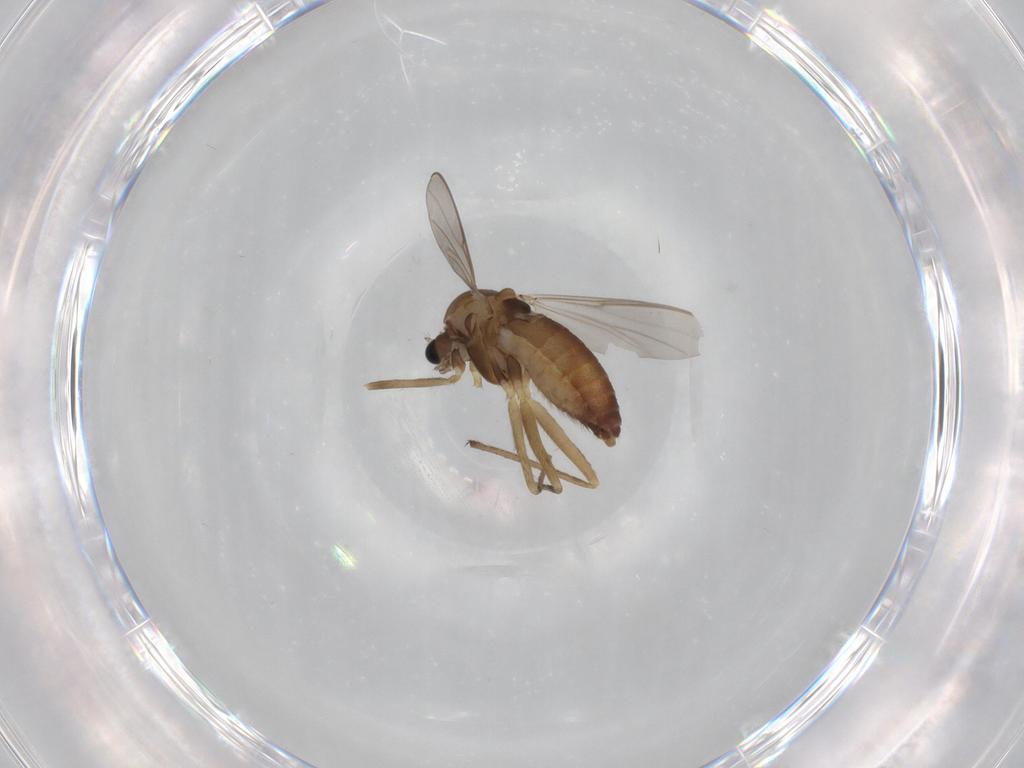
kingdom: Animalia
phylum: Arthropoda
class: Insecta
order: Diptera
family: Chironomidae
